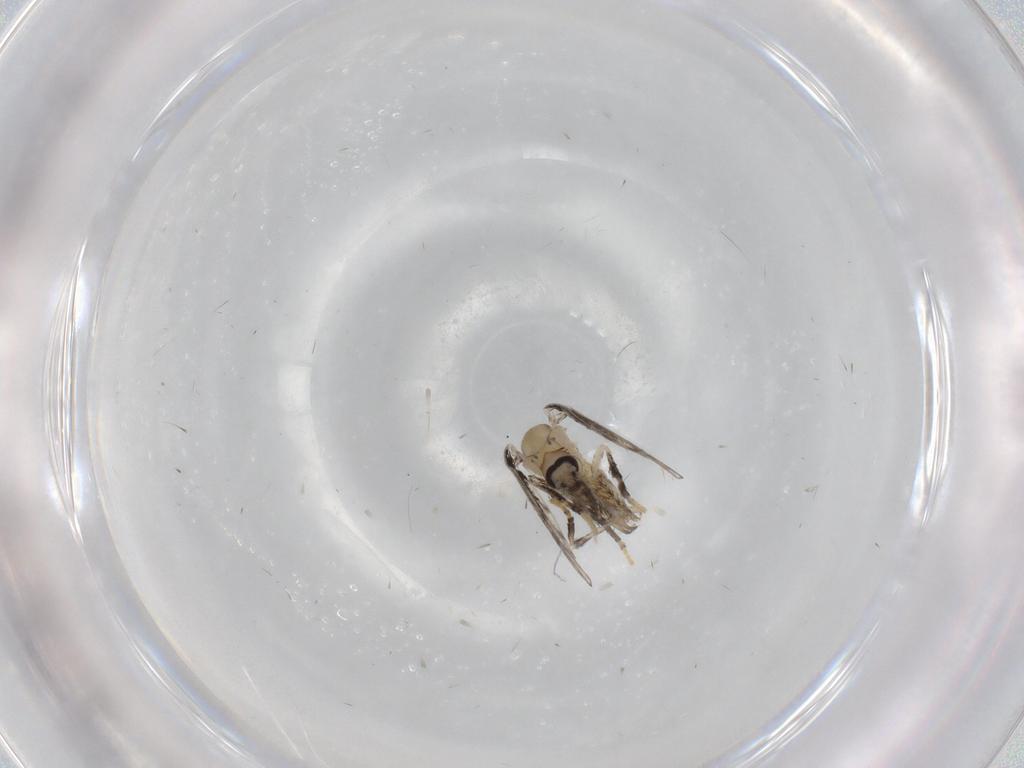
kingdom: Animalia
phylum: Arthropoda
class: Insecta
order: Diptera
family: Psychodidae
